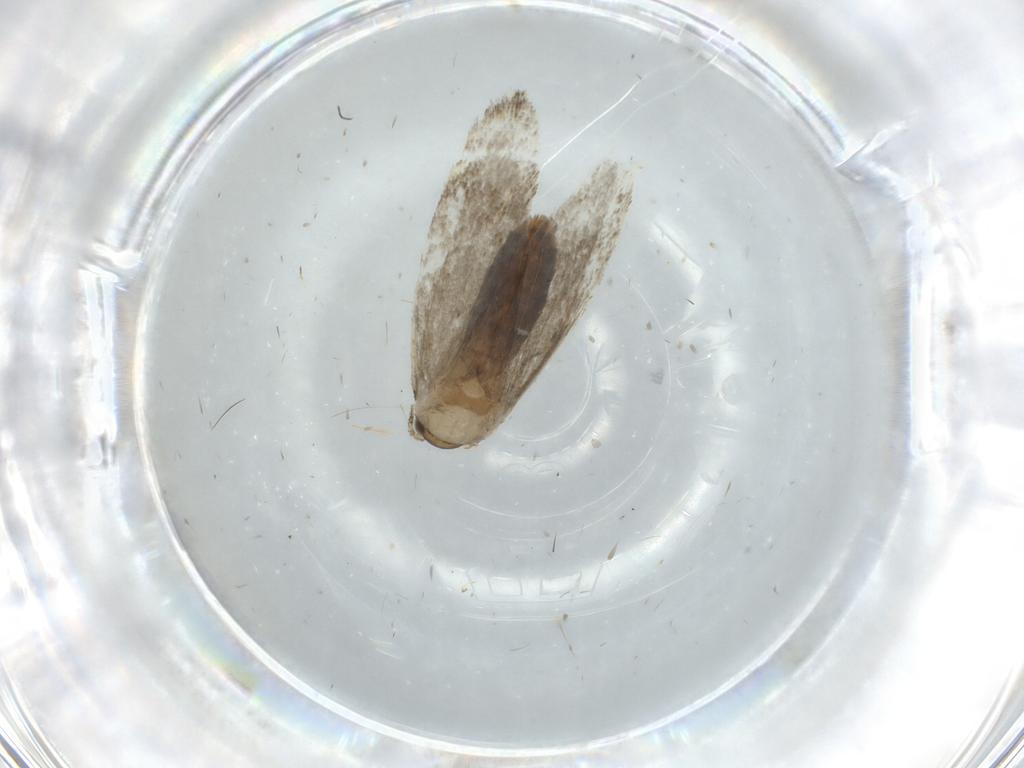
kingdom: Animalia
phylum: Arthropoda
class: Insecta
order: Lepidoptera
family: Tineidae
